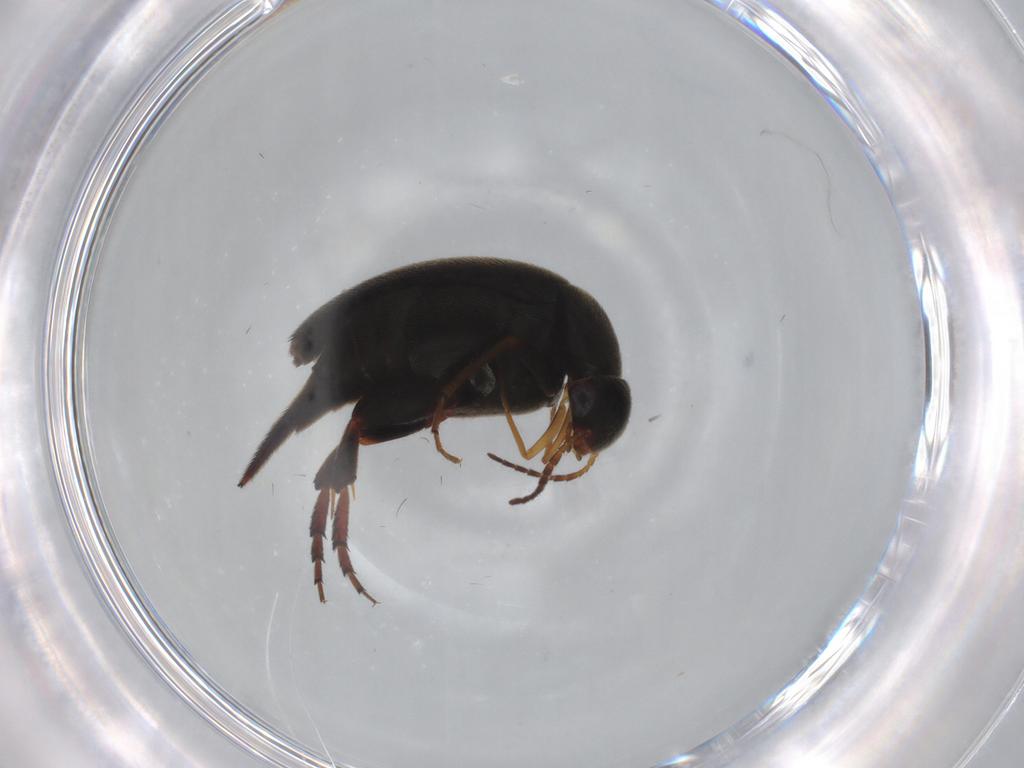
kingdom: Animalia
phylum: Arthropoda
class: Insecta
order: Coleoptera
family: Mordellidae
